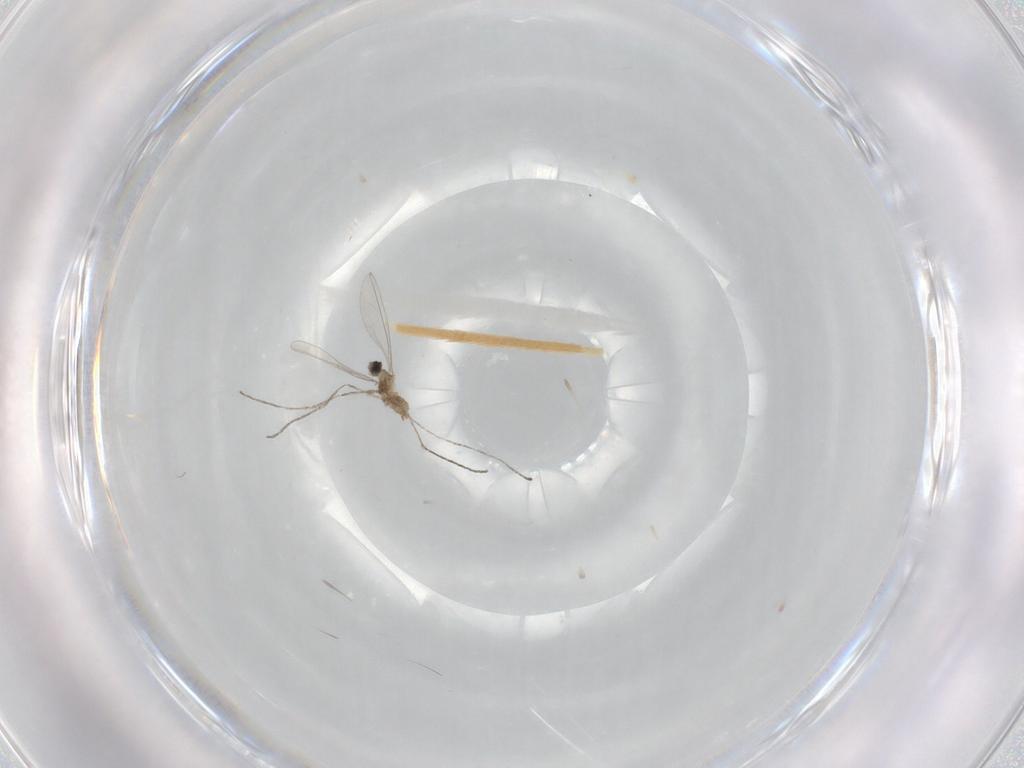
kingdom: Animalia
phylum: Arthropoda
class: Insecta
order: Diptera
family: Cecidomyiidae
